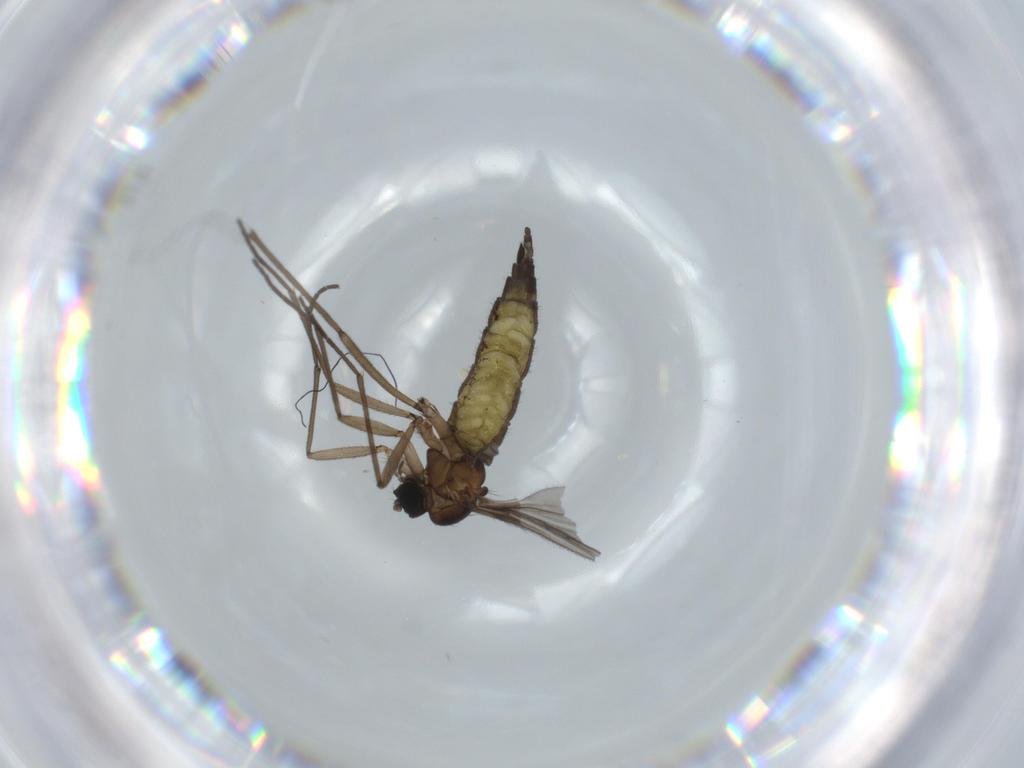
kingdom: Animalia
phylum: Arthropoda
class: Insecta
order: Diptera
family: Sciaridae
